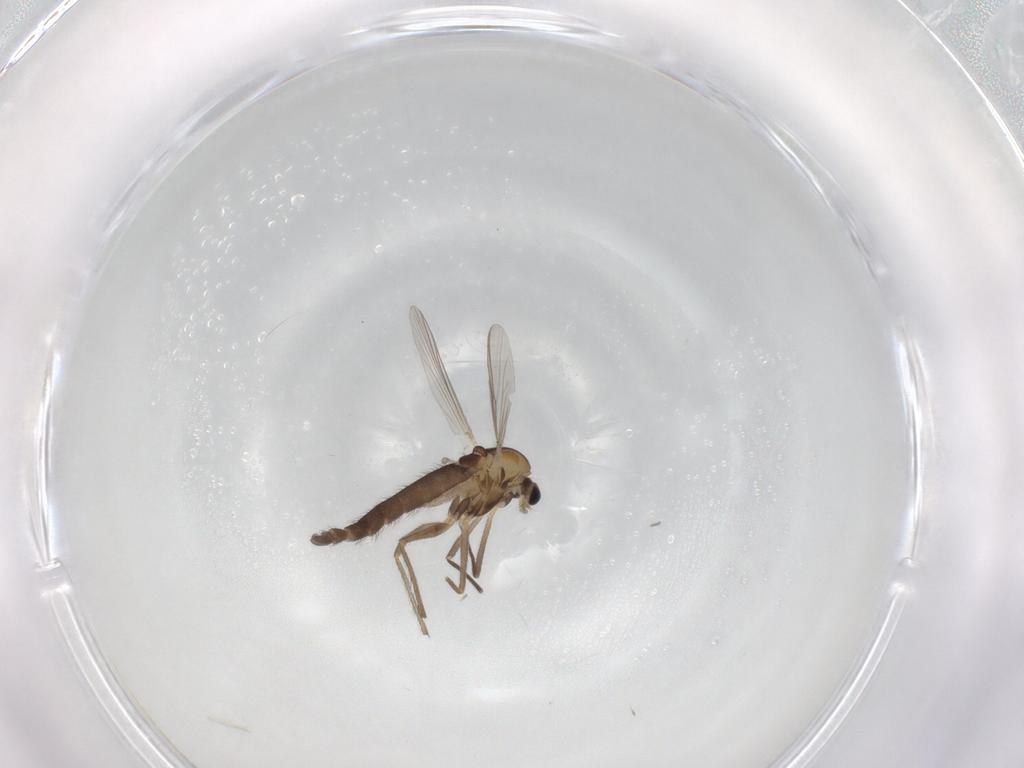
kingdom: Animalia
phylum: Arthropoda
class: Insecta
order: Diptera
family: Chironomidae
